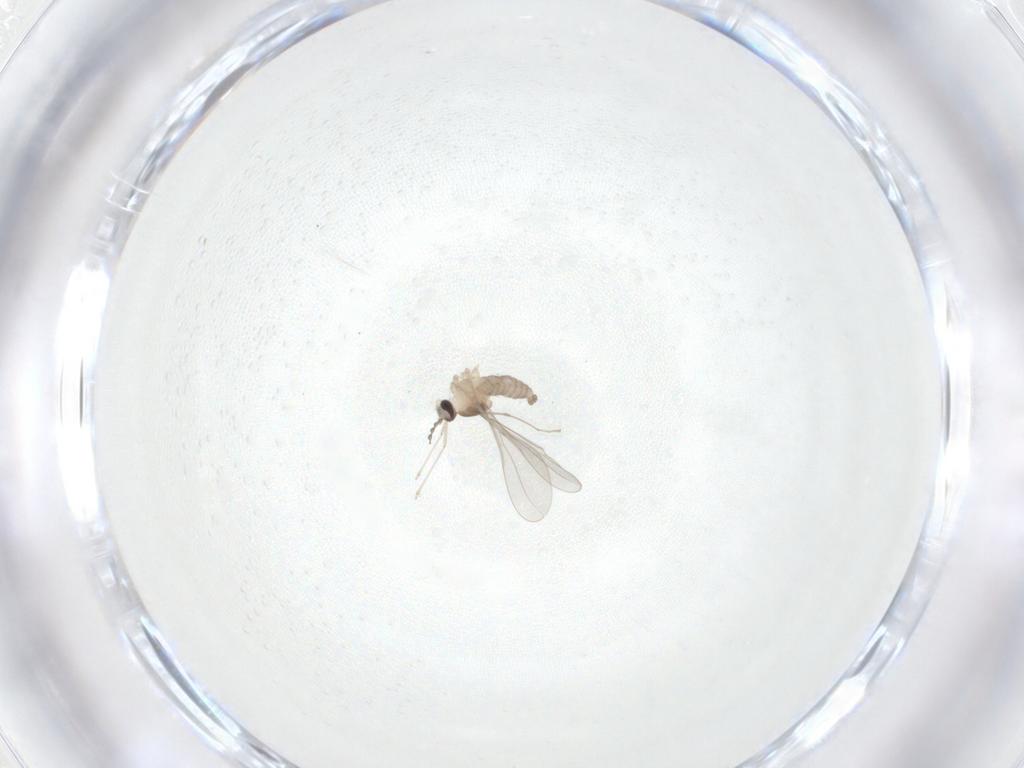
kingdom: Animalia
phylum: Arthropoda
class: Insecta
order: Diptera
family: Cecidomyiidae
